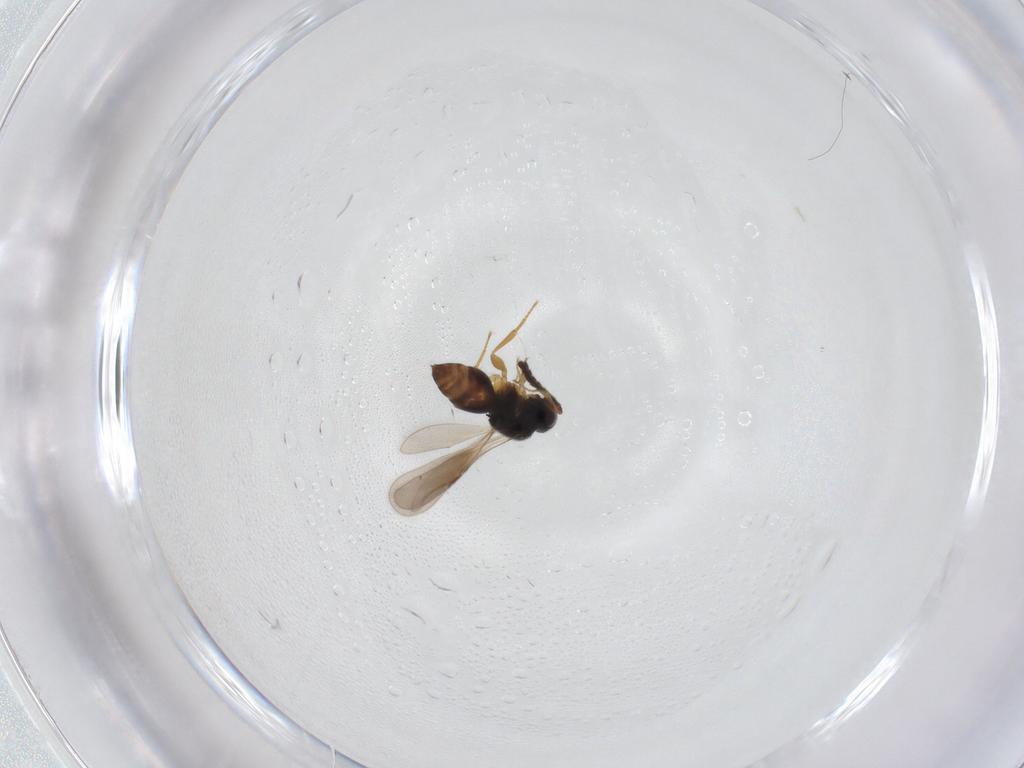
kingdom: Animalia
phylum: Arthropoda
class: Insecta
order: Hymenoptera
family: Ceraphronidae
